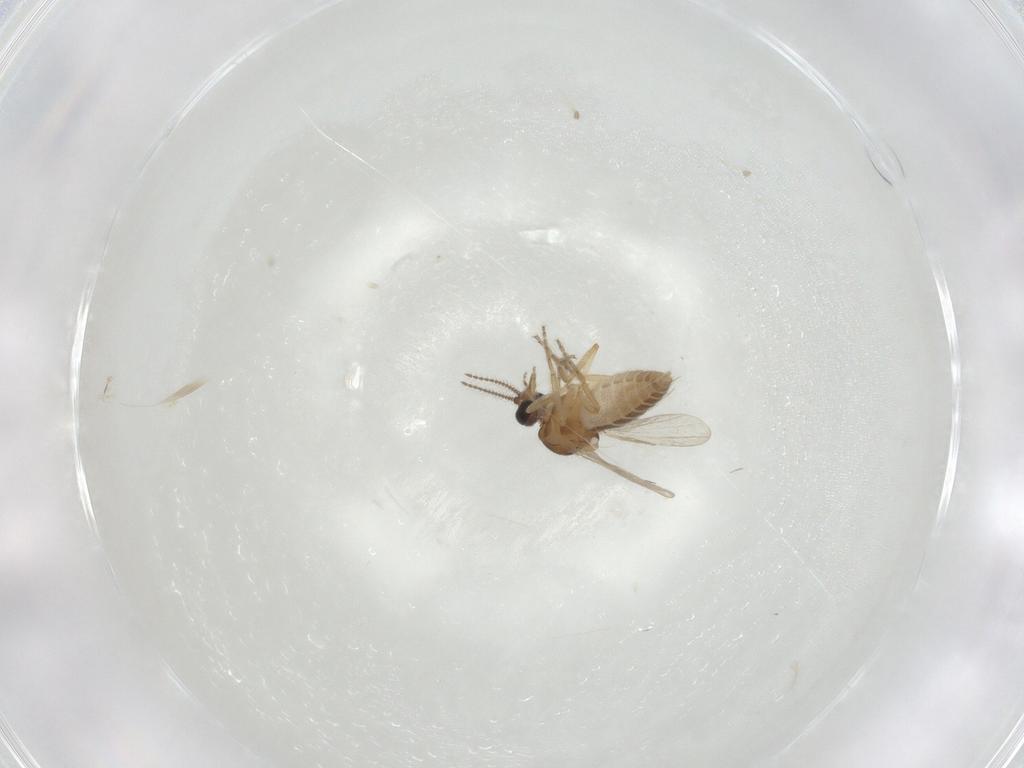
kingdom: Animalia
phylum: Arthropoda
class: Insecta
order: Diptera
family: Ceratopogonidae
